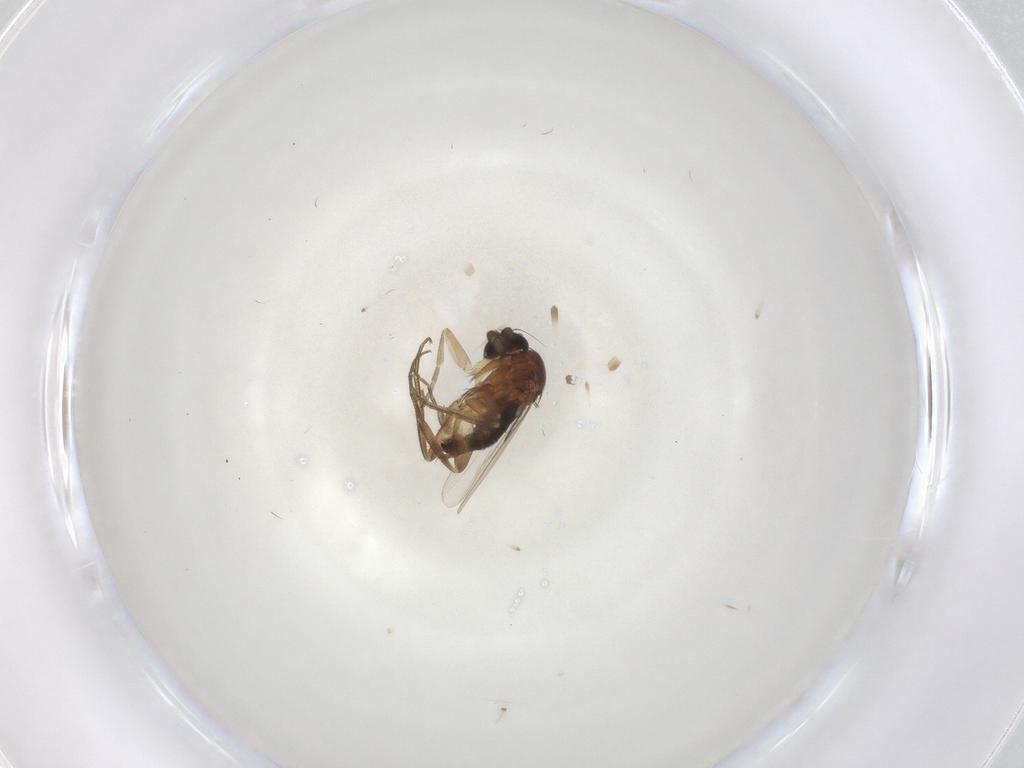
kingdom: Animalia
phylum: Arthropoda
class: Insecta
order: Diptera
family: Phoridae
